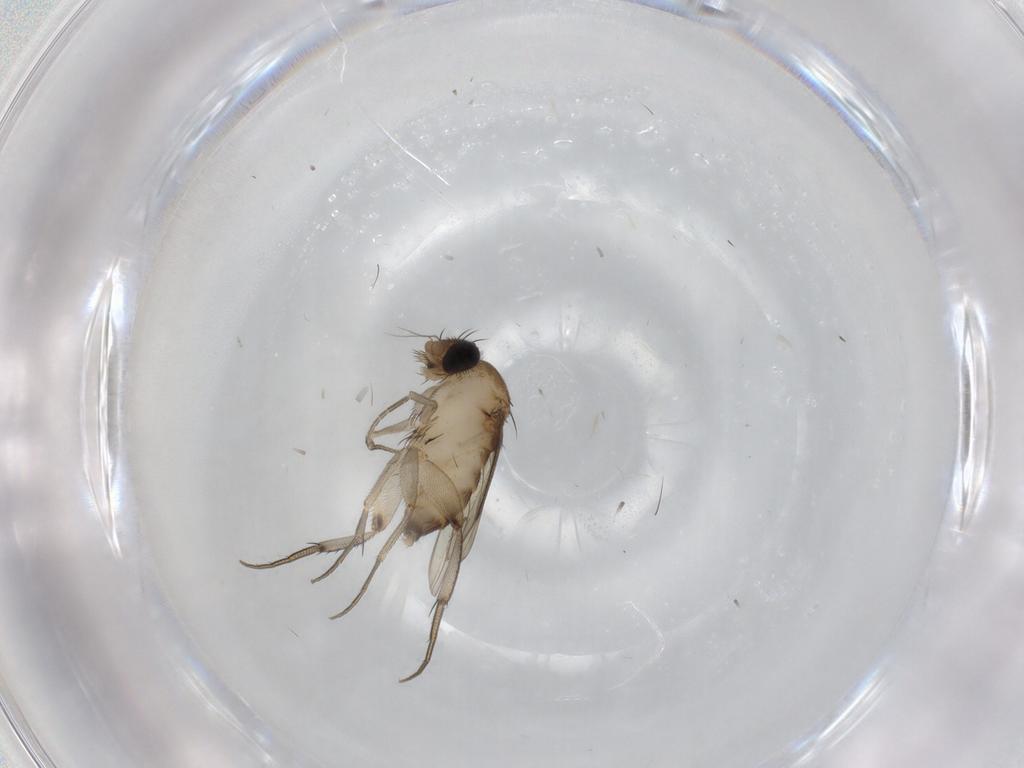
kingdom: Animalia
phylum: Arthropoda
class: Insecta
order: Diptera
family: Phoridae
